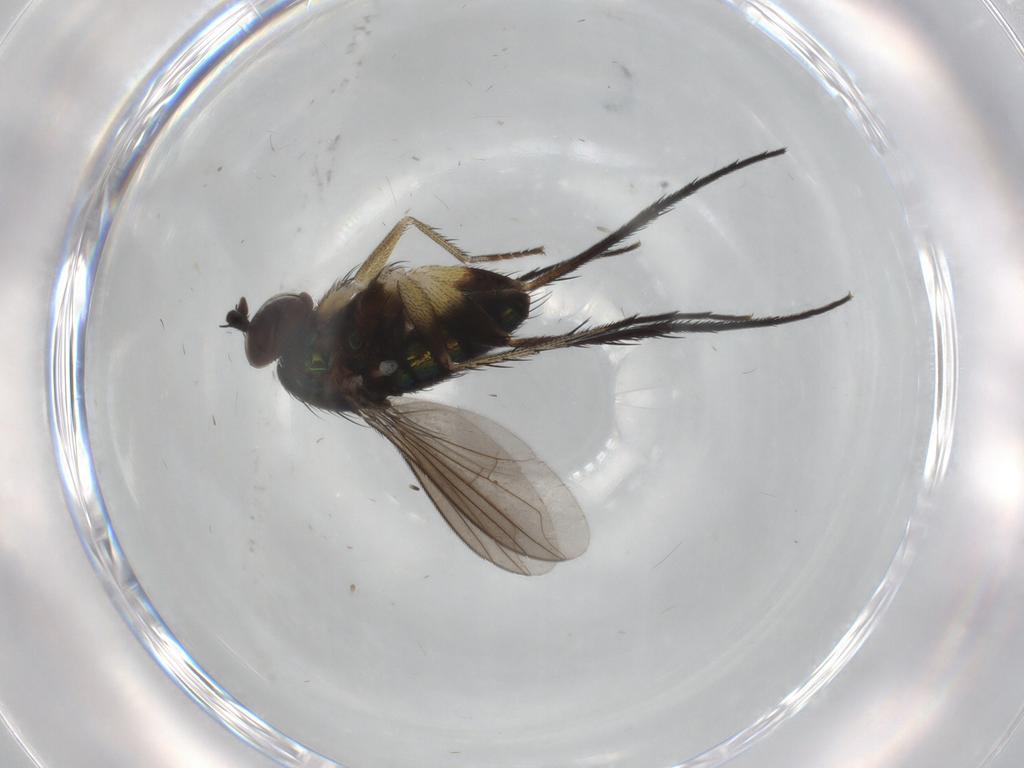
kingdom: Animalia
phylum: Arthropoda
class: Insecta
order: Diptera
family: Dolichopodidae
